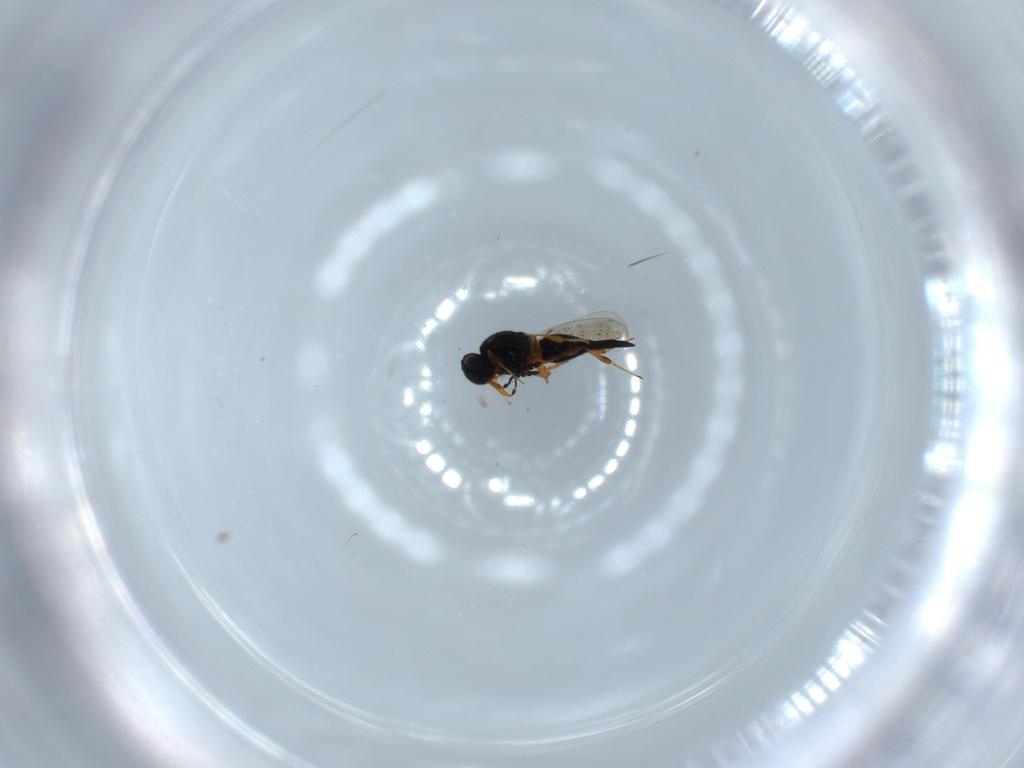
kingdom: Animalia
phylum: Arthropoda
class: Insecta
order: Hymenoptera
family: Platygastridae
